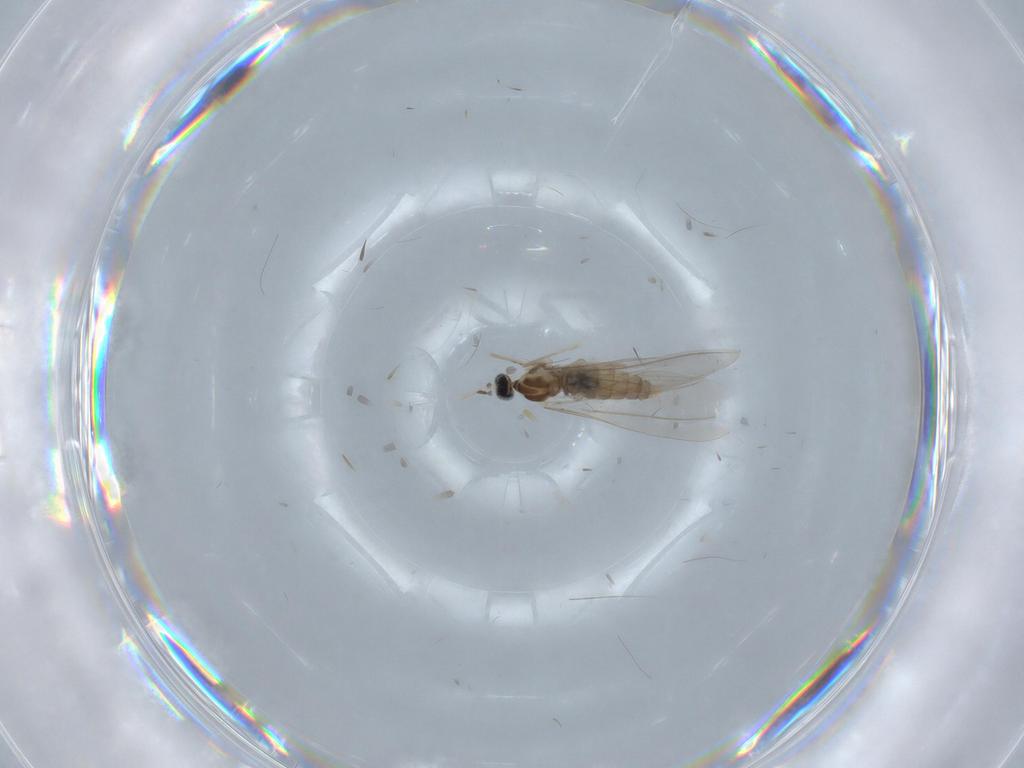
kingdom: Animalia
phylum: Arthropoda
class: Insecta
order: Diptera
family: Cecidomyiidae
